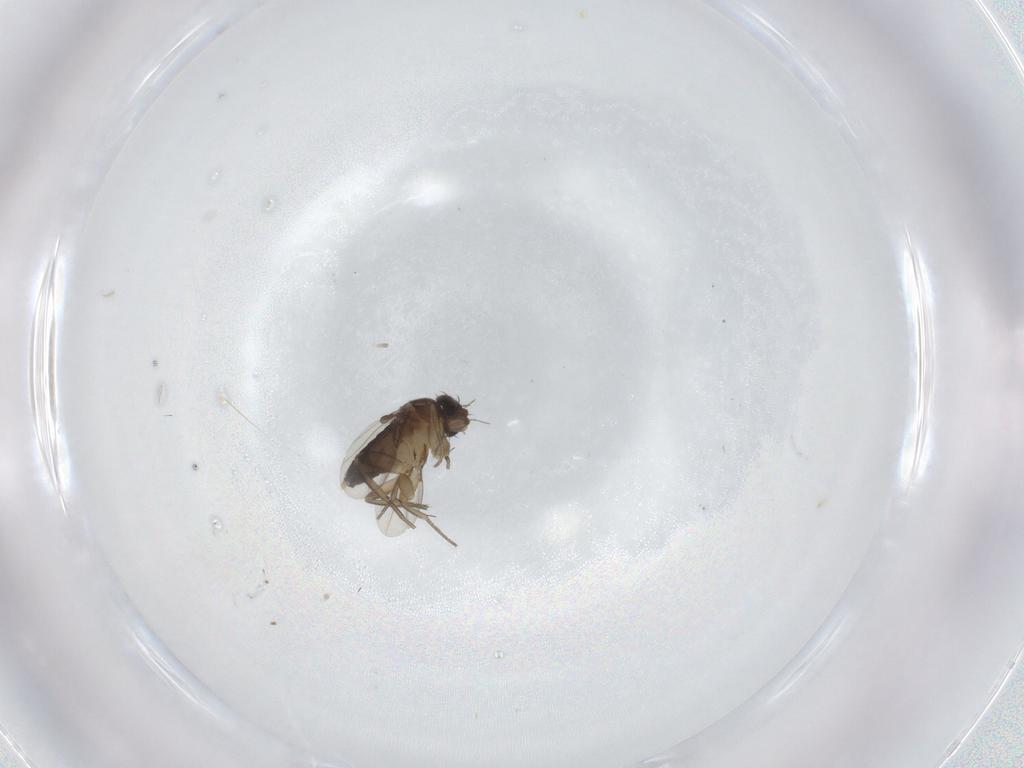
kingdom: Animalia
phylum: Arthropoda
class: Insecta
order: Diptera
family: Phoridae
